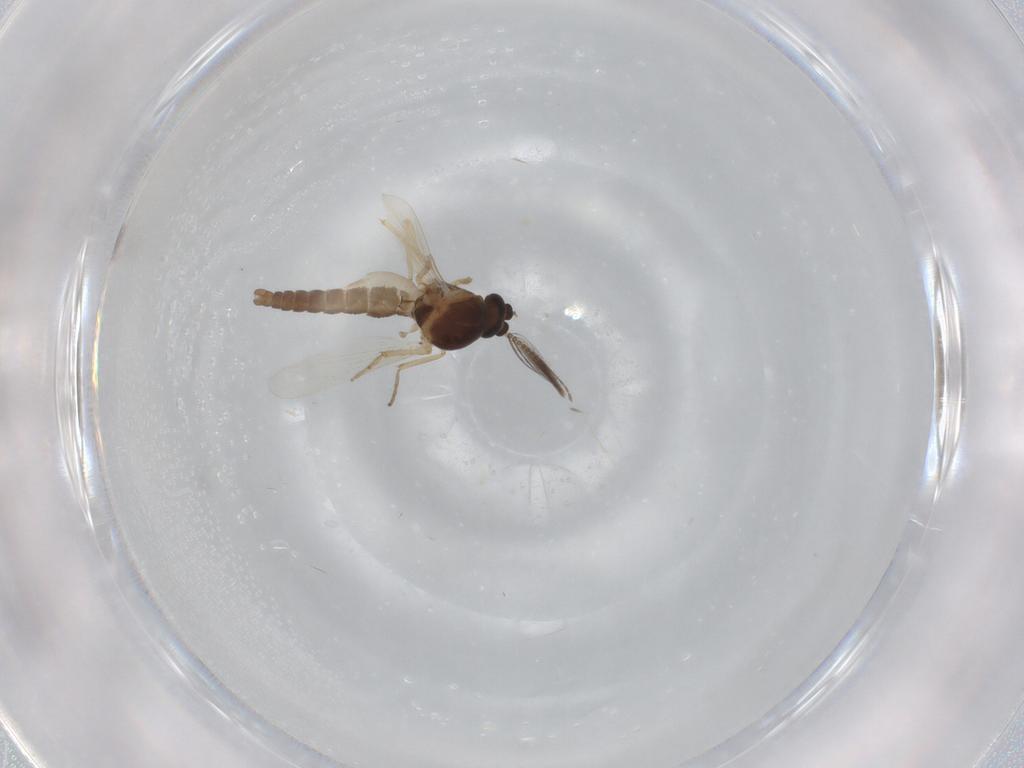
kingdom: Animalia
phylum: Arthropoda
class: Insecta
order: Diptera
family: Ceratopogonidae
